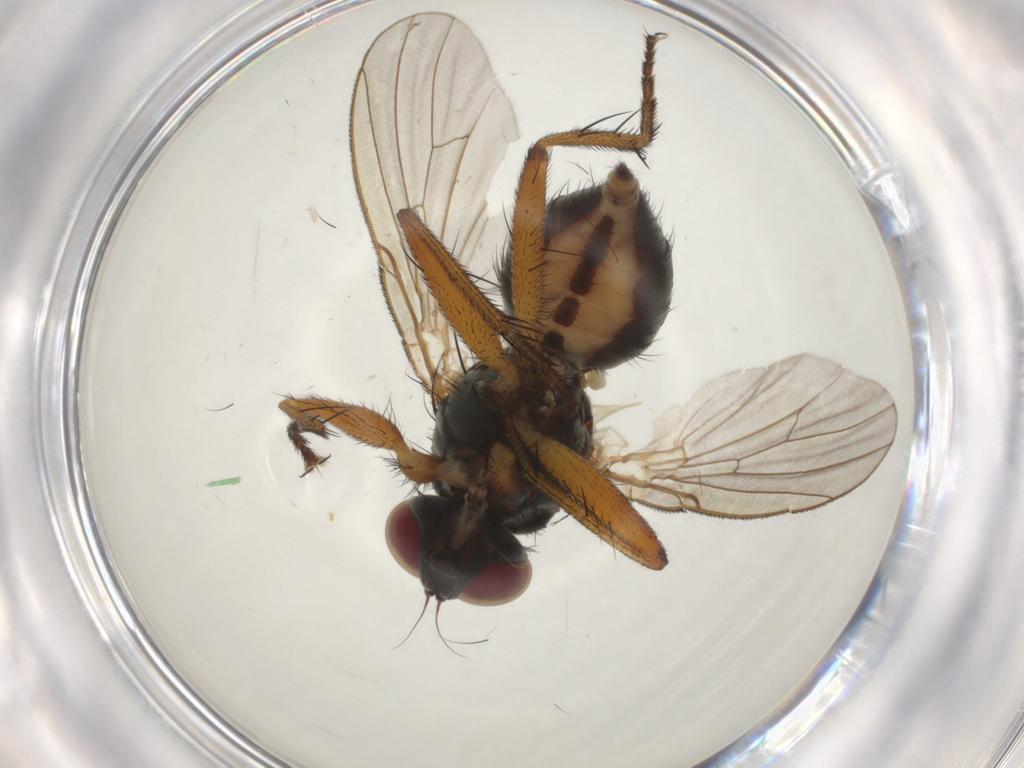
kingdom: Animalia
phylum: Arthropoda
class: Insecta
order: Diptera
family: Muscidae
